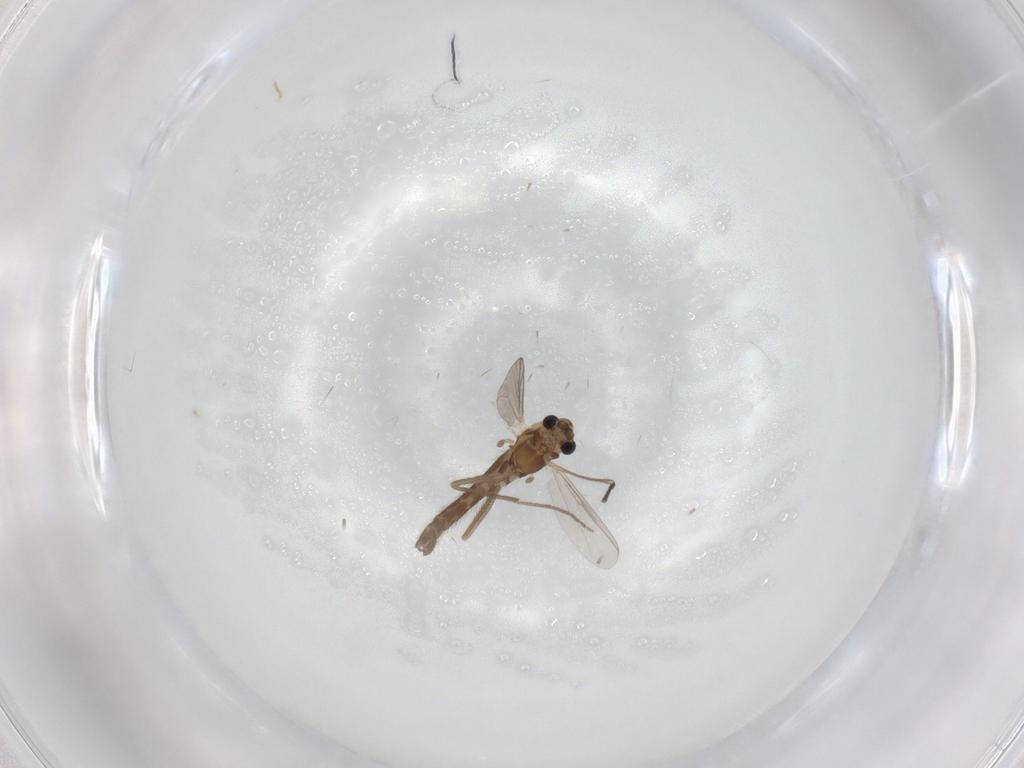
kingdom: Animalia
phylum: Arthropoda
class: Insecta
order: Diptera
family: Chironomidae
